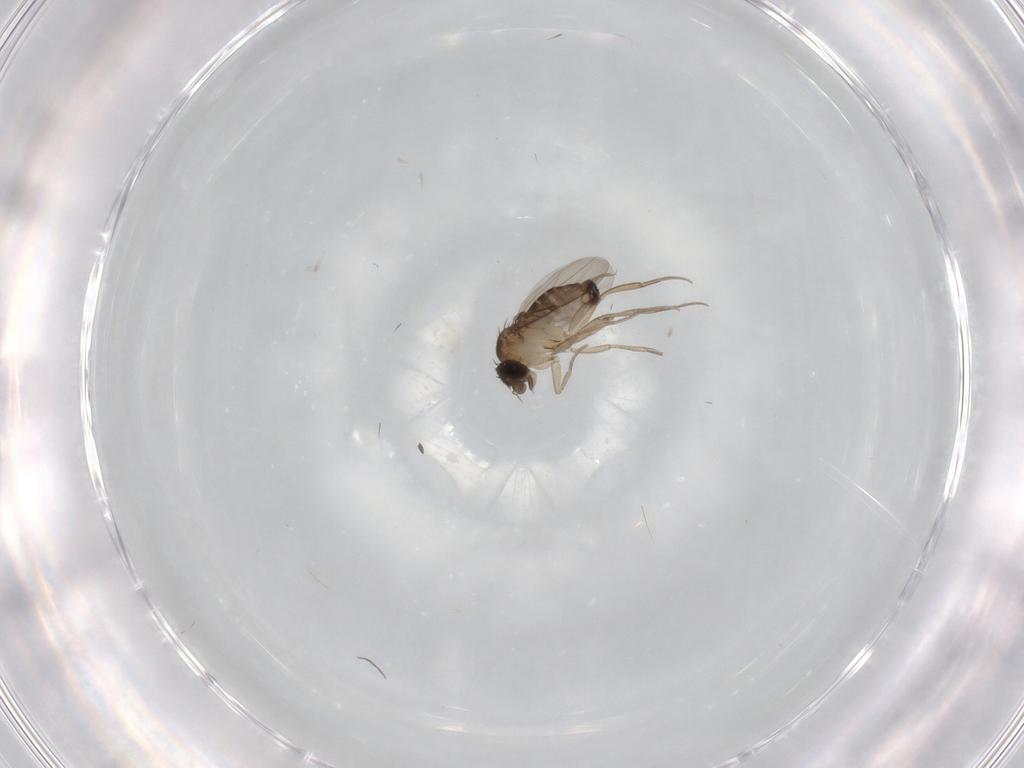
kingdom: Animalia
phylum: Arthropoda
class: Insecta
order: Diptera
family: Phoridae
